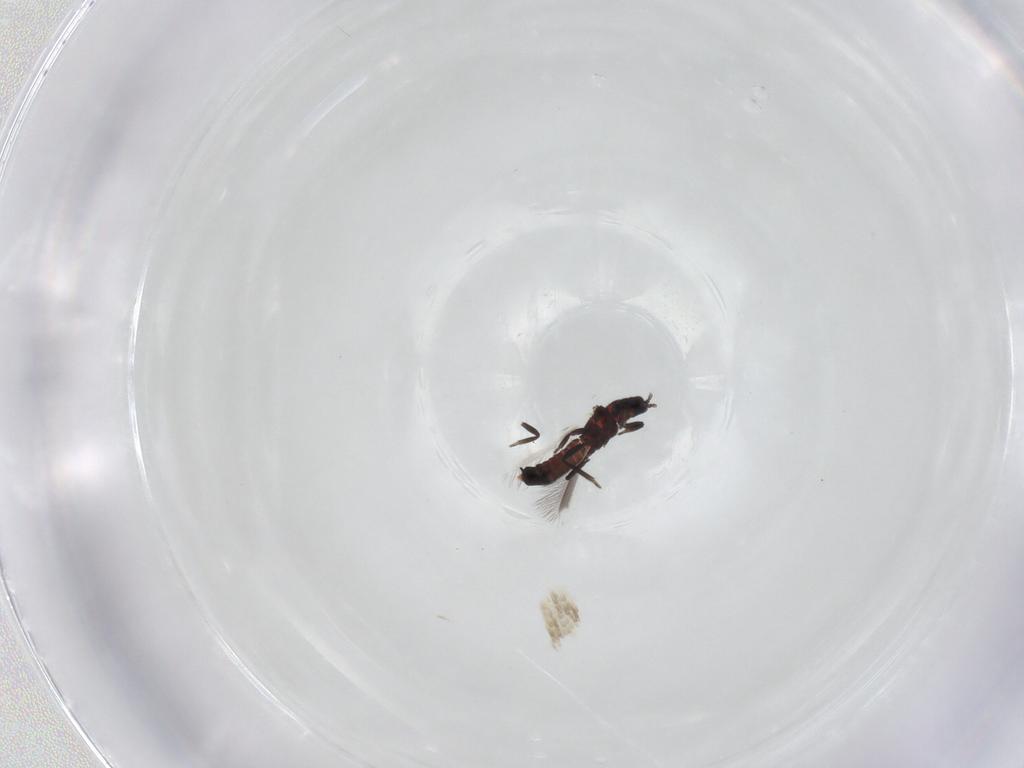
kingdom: Animalia
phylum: Arthropoda
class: Insecta
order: Thysanoptera
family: Aeolothripidae
